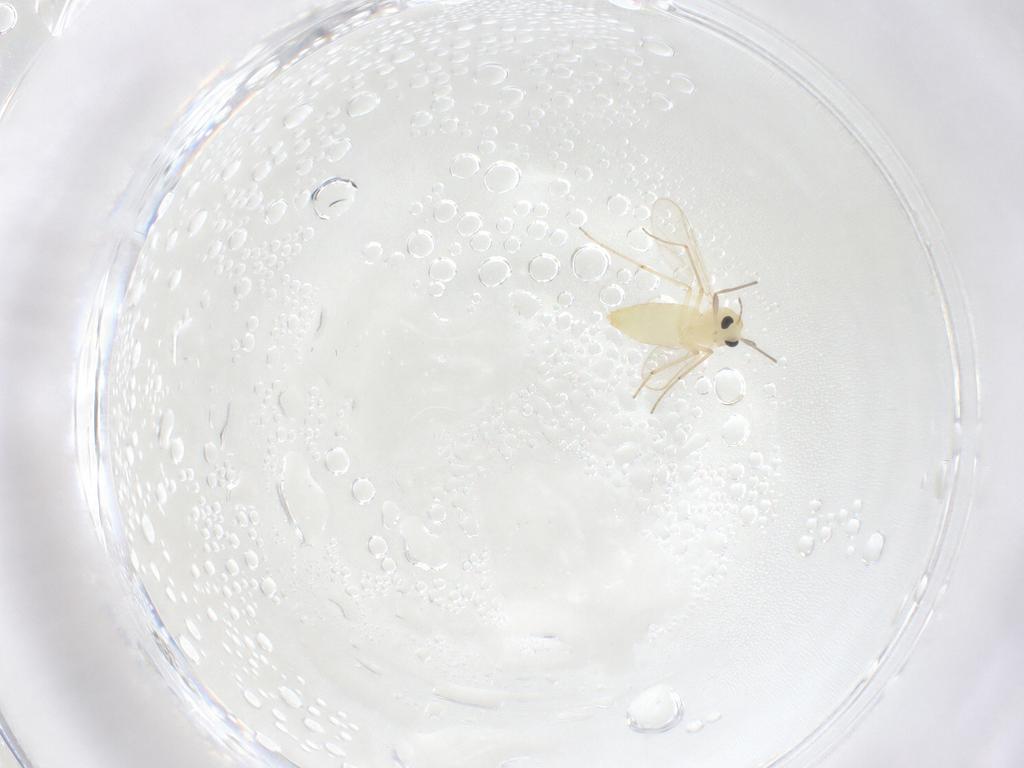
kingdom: Animalia
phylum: Arthropoda
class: Insecta
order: Diptera
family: Chironomidae
